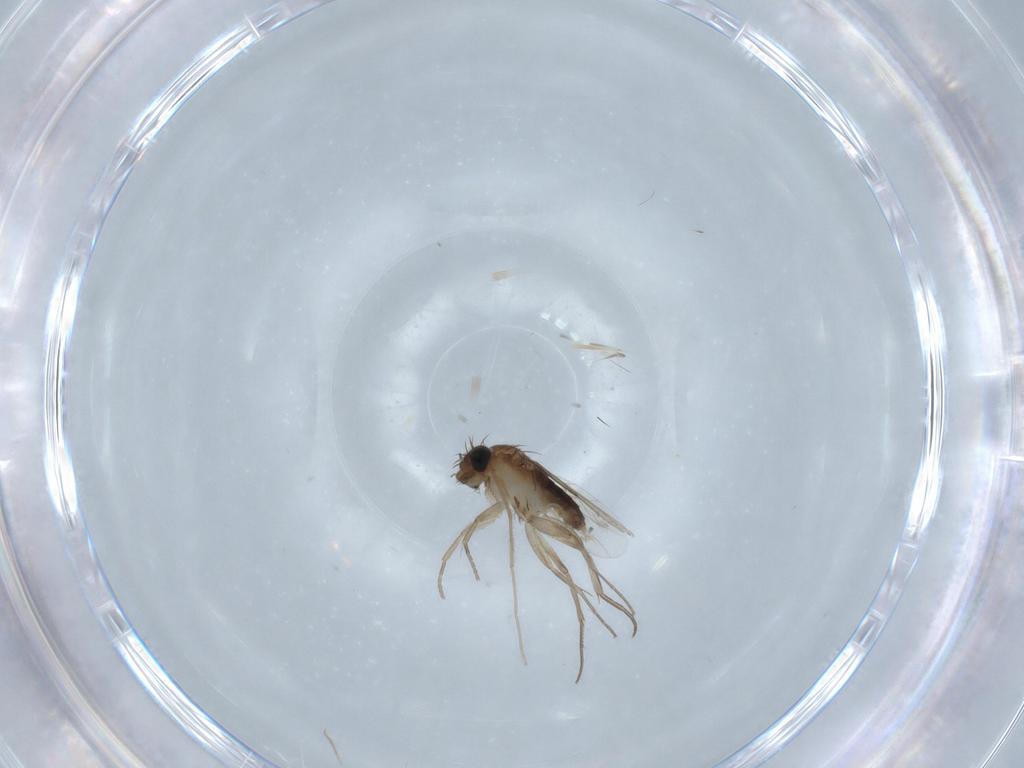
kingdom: Animalia
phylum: Arthropoda
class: Insecta
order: Diptera
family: Phoridae
